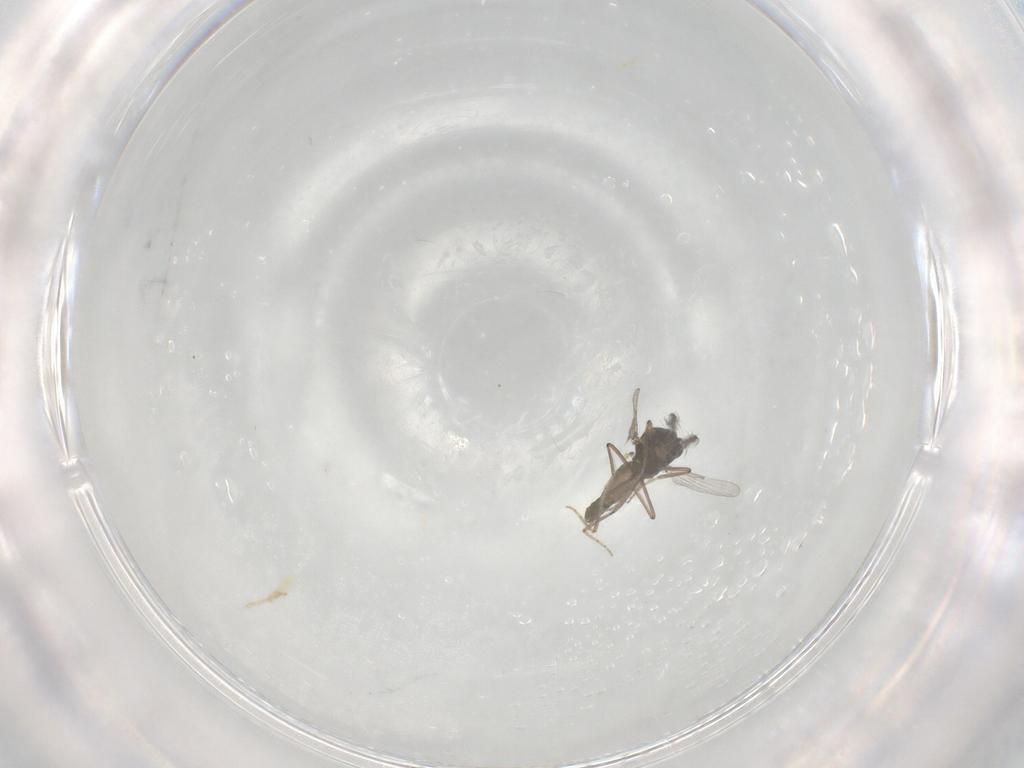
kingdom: Animalia
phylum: Arthropoda
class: Insecta
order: Diptera
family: Ceratopogonidae
